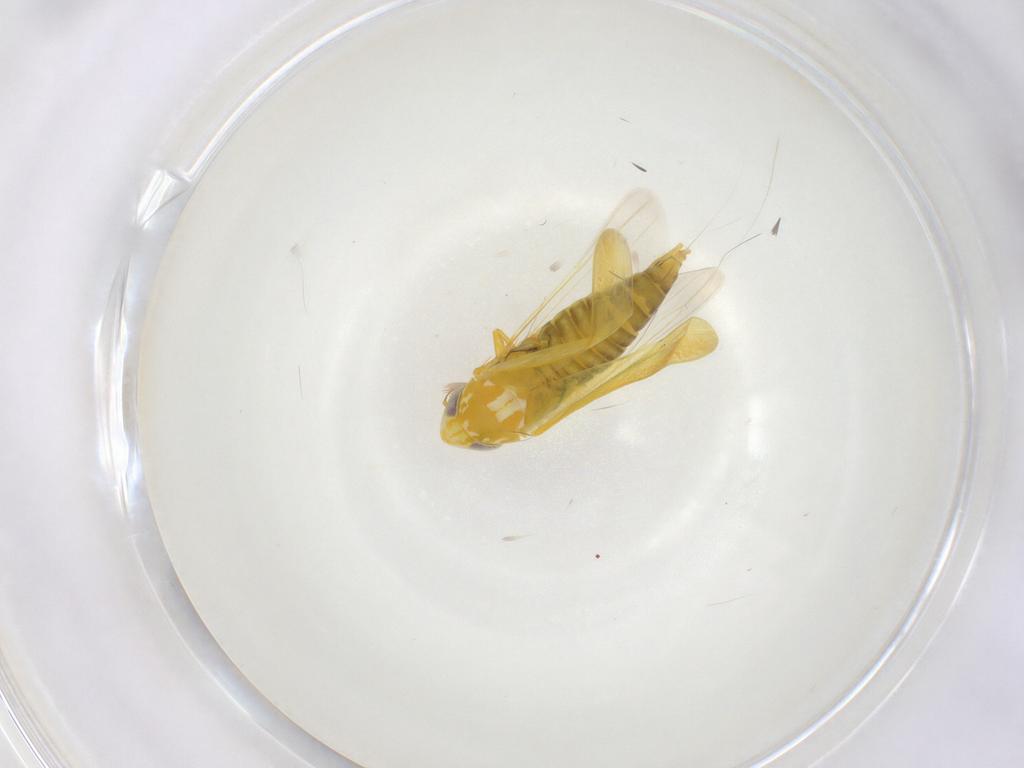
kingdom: Animalia
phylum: Arthropoda
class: Insecta
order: Hemiptera
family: Cicadellidae
